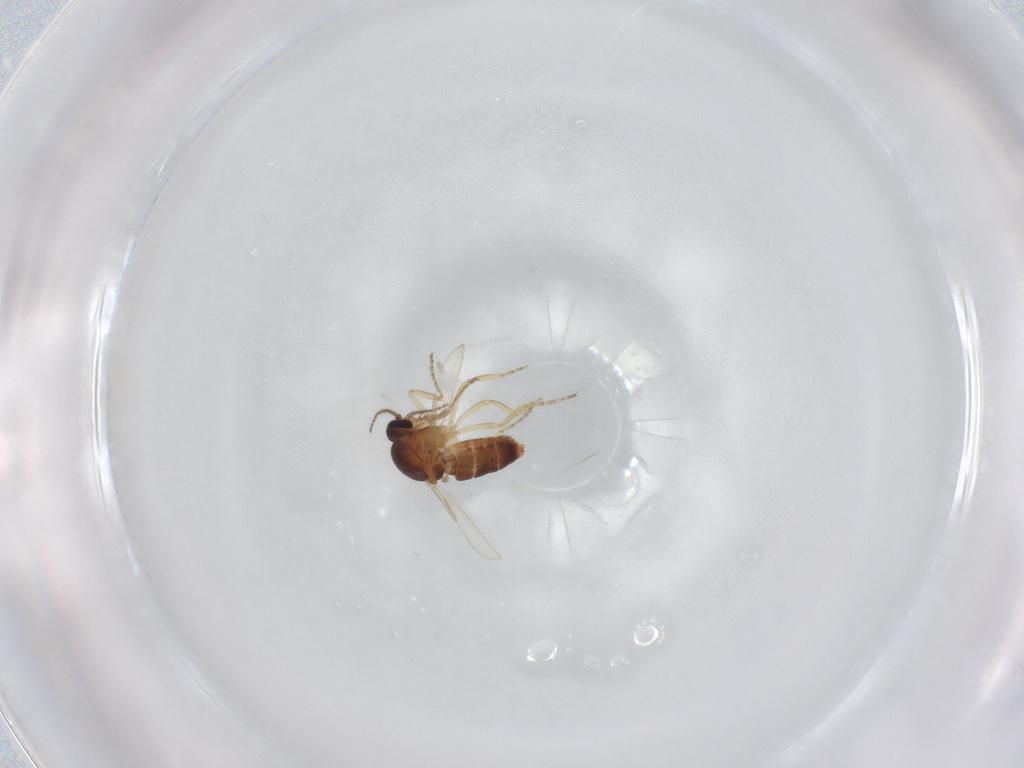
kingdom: Animalia
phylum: Arthropoda
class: Insecta
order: Diptera
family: Ceratopogonidae
